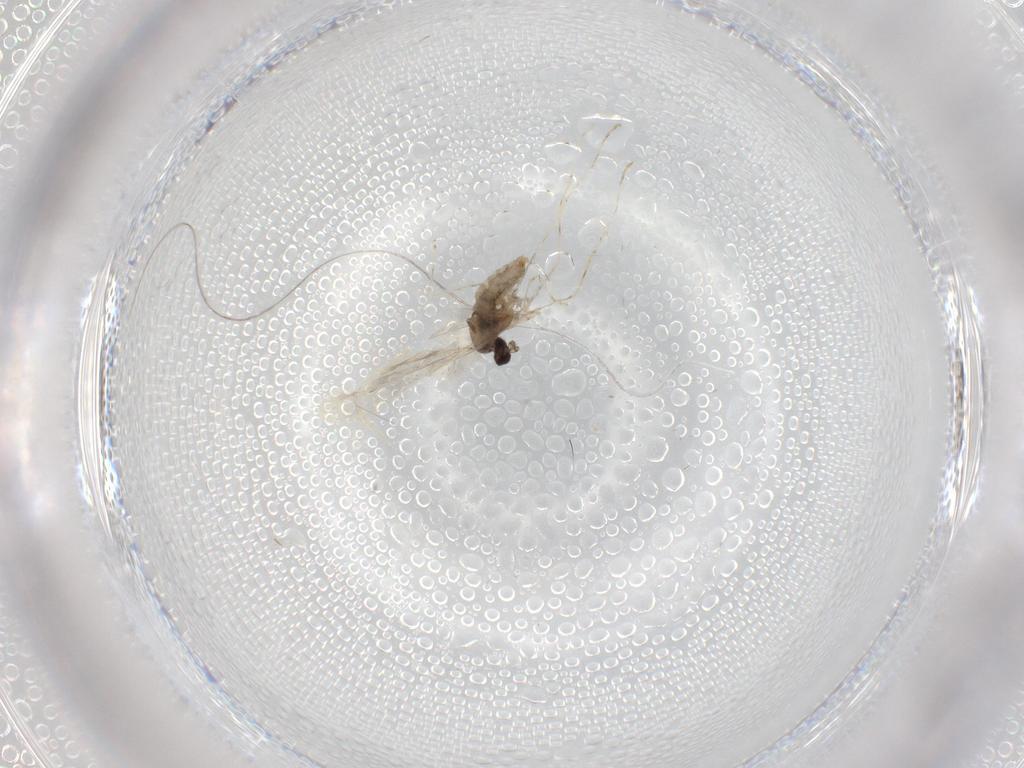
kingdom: Animalia
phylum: Arthropoda
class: Insecta
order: Diptera
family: Cecidomyiidae
